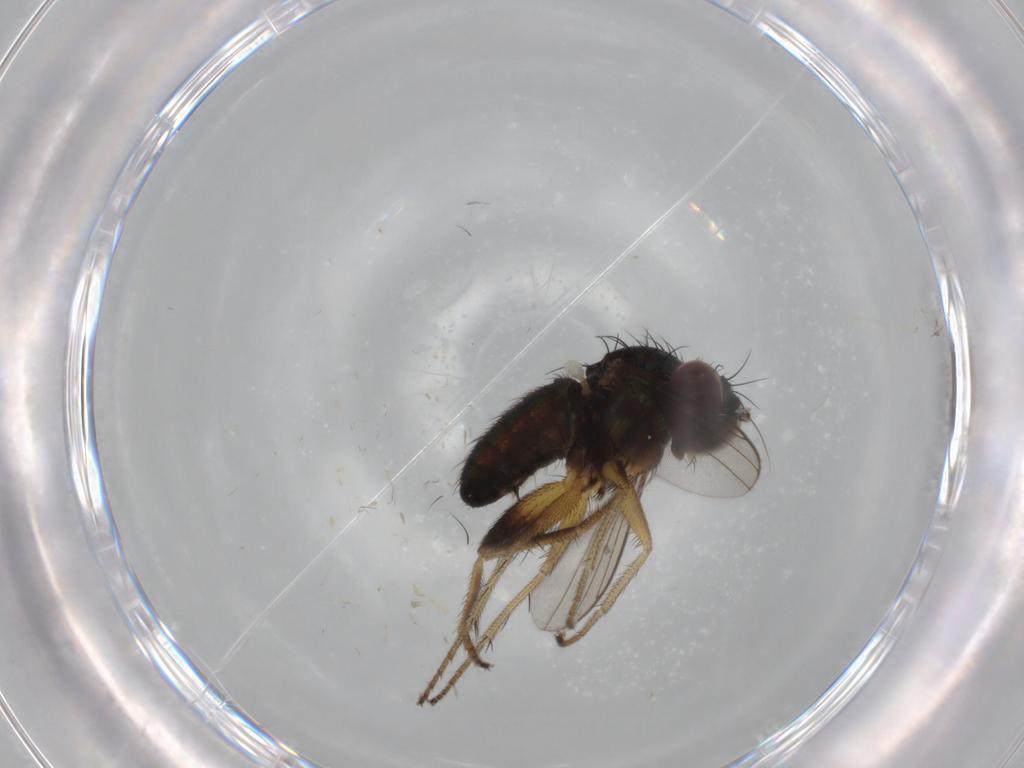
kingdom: Animalia
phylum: Arthropoda
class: Insecta
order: Diptera
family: Dolichopodidae
